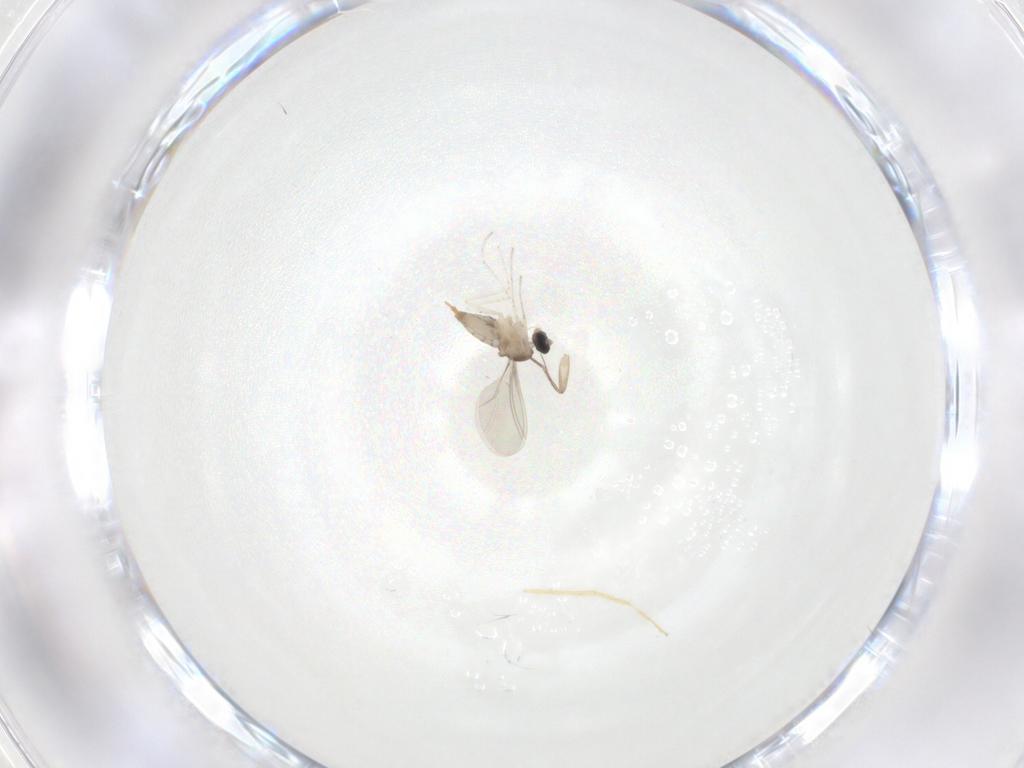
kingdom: Animalia
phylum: Arthropoda
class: Insecta
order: Diptera
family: Cecidomyiidae
